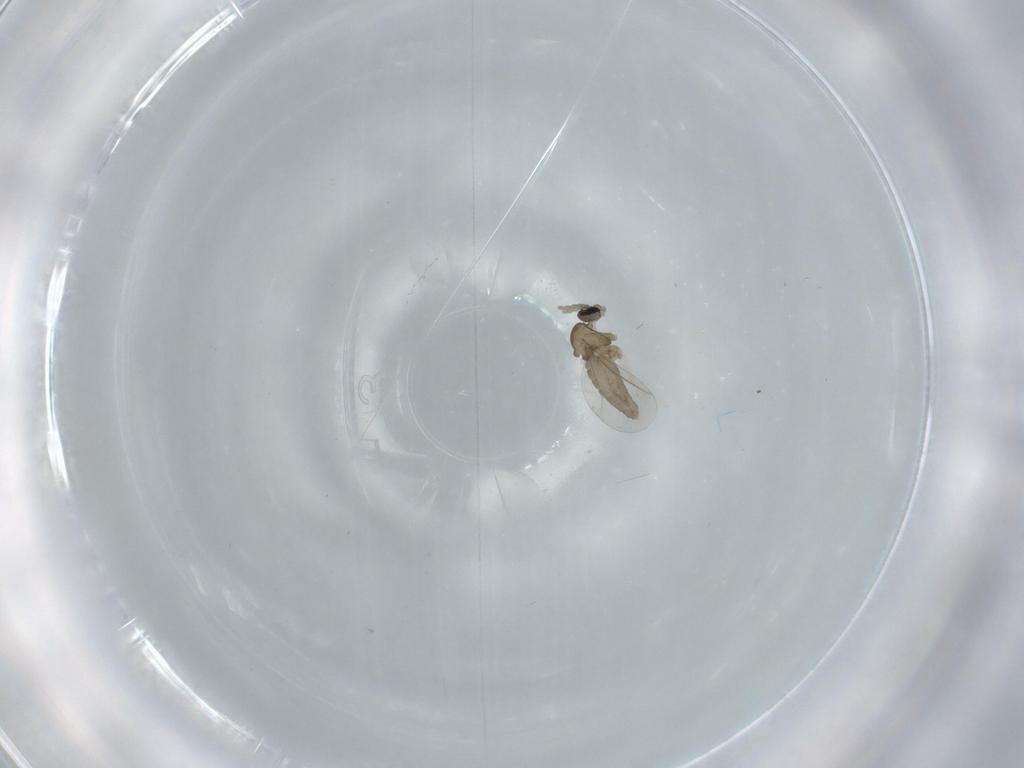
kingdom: Animalia
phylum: Arthropoda
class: Insecta
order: Diptera
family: Cecidomyiidae
